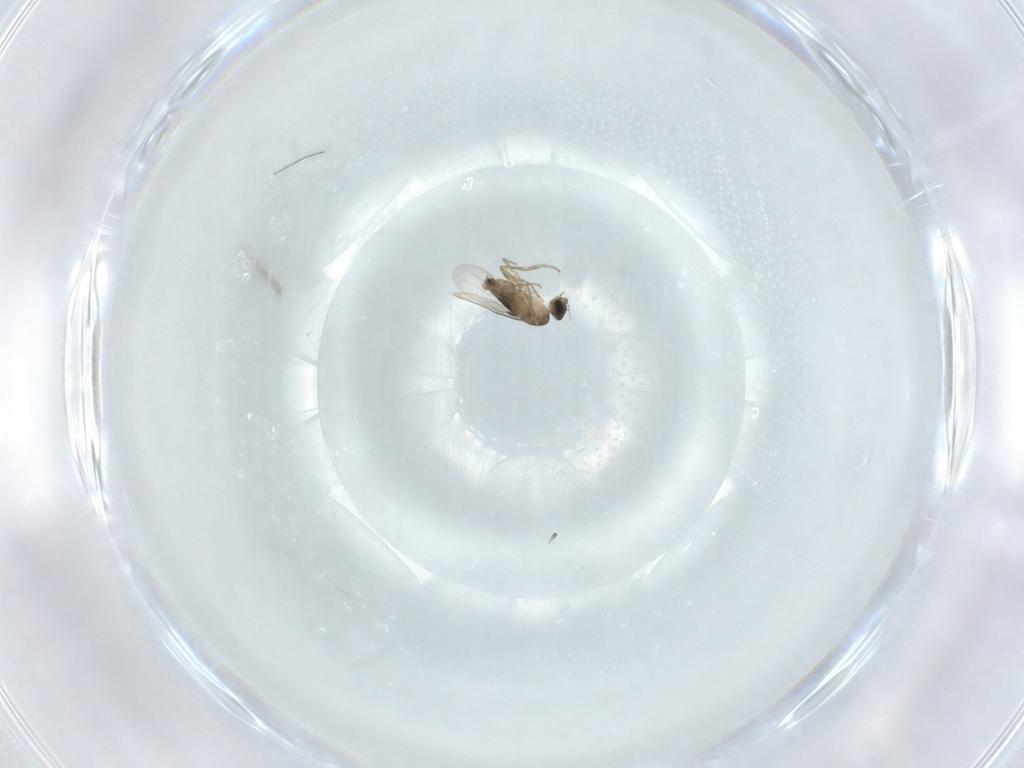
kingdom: Animalia
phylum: Arthropoda
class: Insecta
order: Diptera
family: Phoridae
